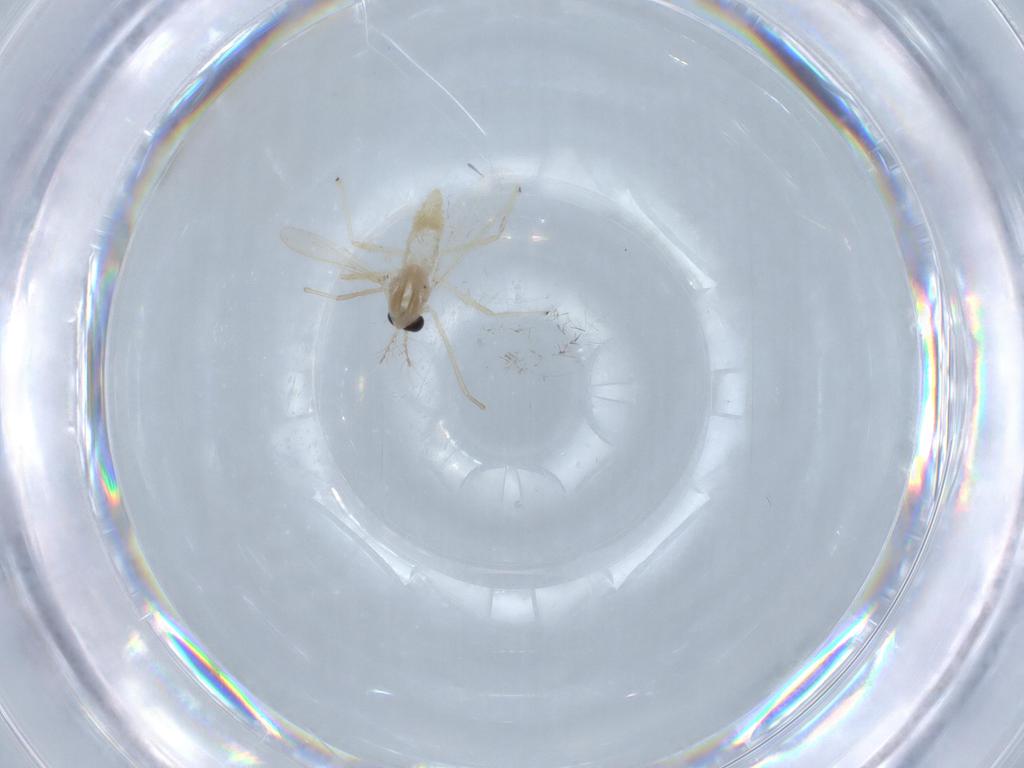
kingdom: Animalia
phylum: Arthropoda
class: Insecta
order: Diptera
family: Chironomidae
